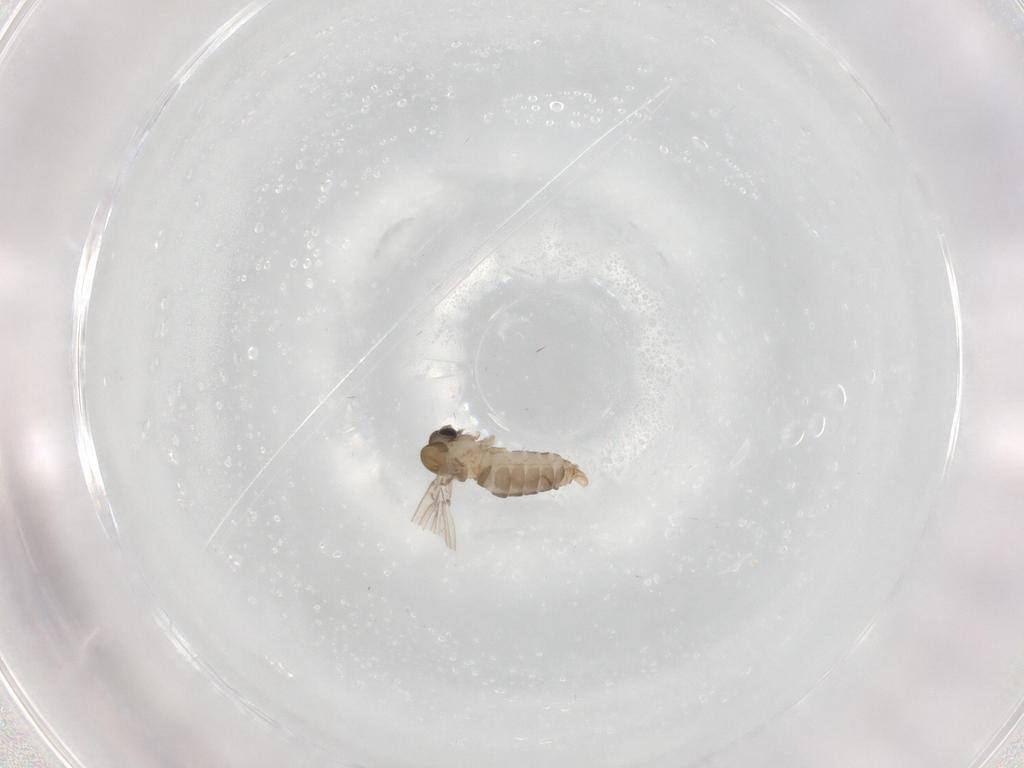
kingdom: Animalia
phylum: Arthropoda
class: Insecta
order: Diptera
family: Psychodidae
